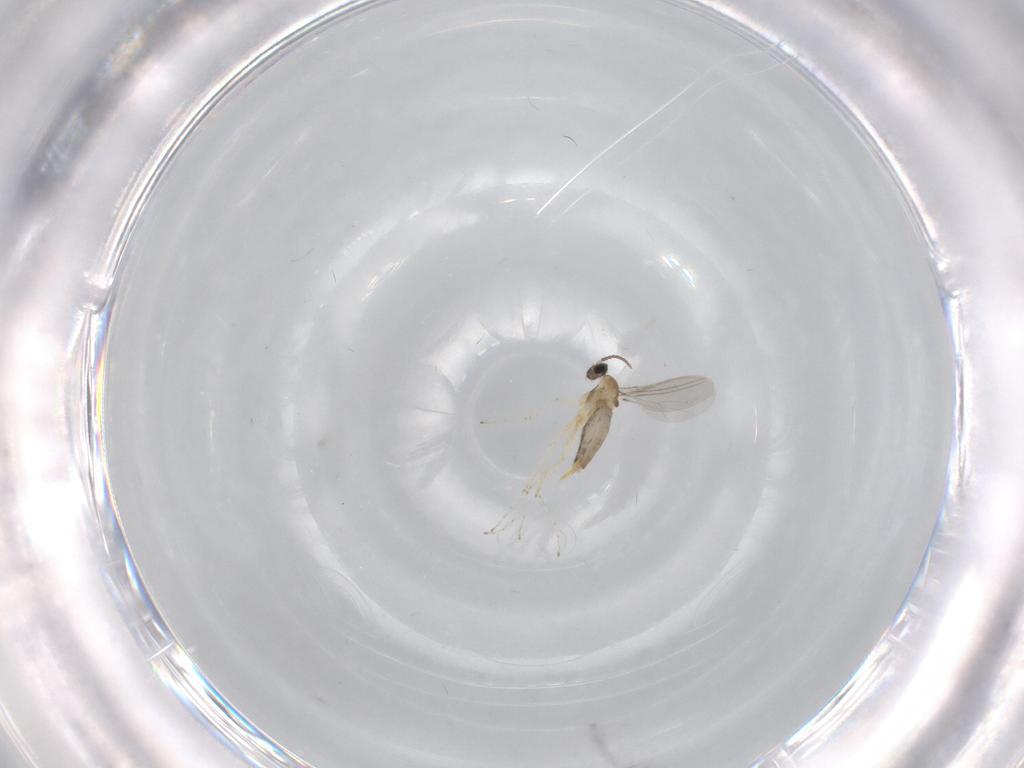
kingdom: Animalia
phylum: Arthropoda
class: Insecta
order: Diptera
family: Cecidomyiidae
